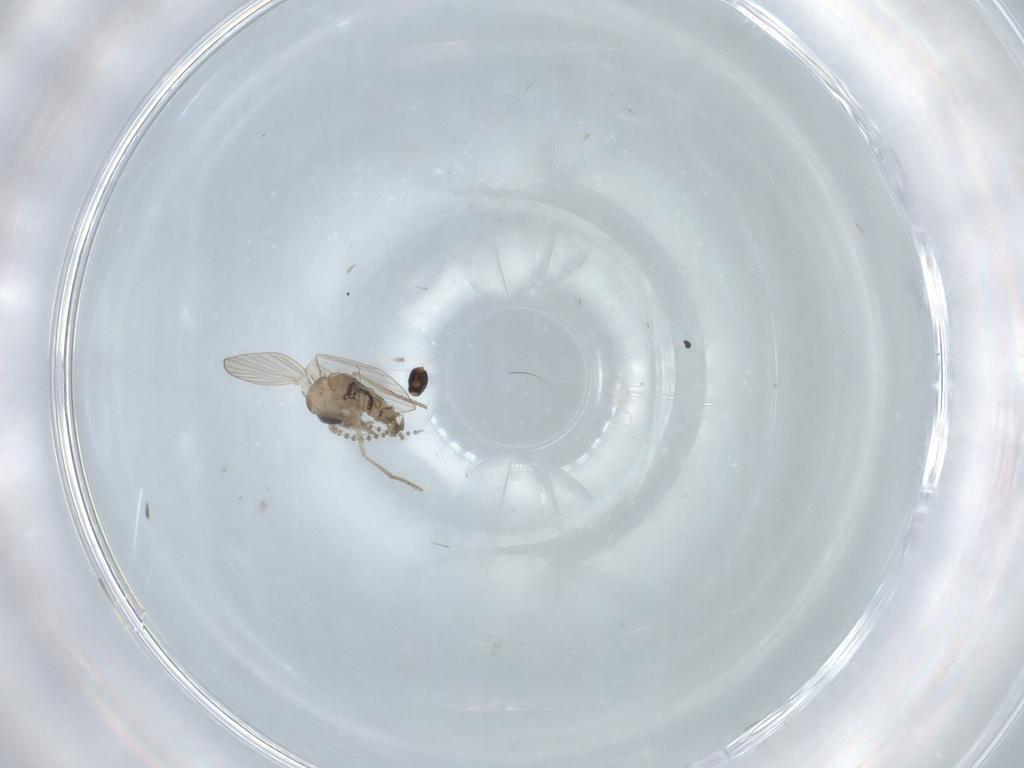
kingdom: Animalia
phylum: Arthropoda
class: Insecta
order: Diptera
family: Psychodidae
